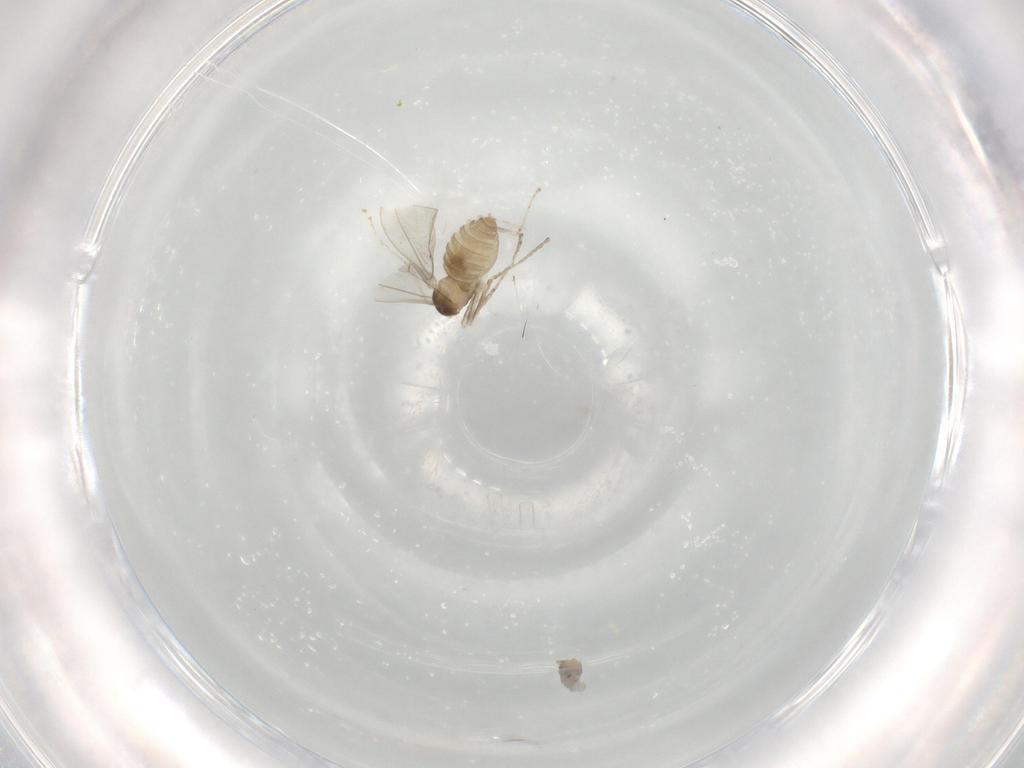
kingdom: Animalia
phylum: Arthropoda
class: Insecta
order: Diptera
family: Cecidomyiidae
